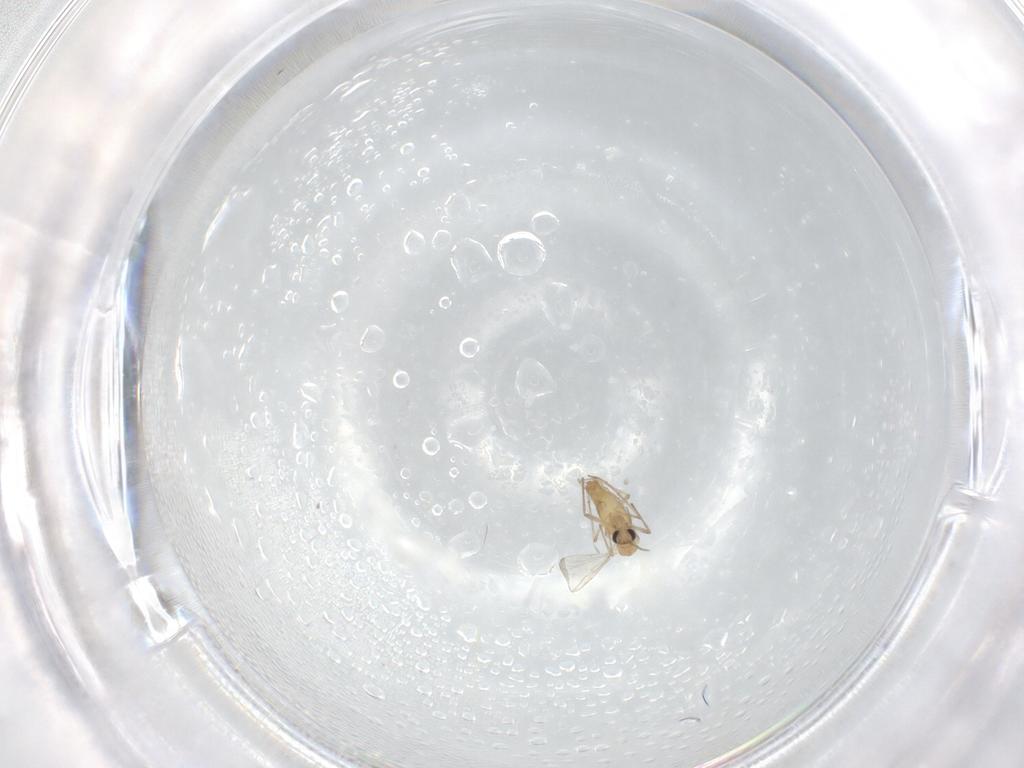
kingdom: Animalia
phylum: Arthropoda
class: Insecta
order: Diptera
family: Chironomidae
